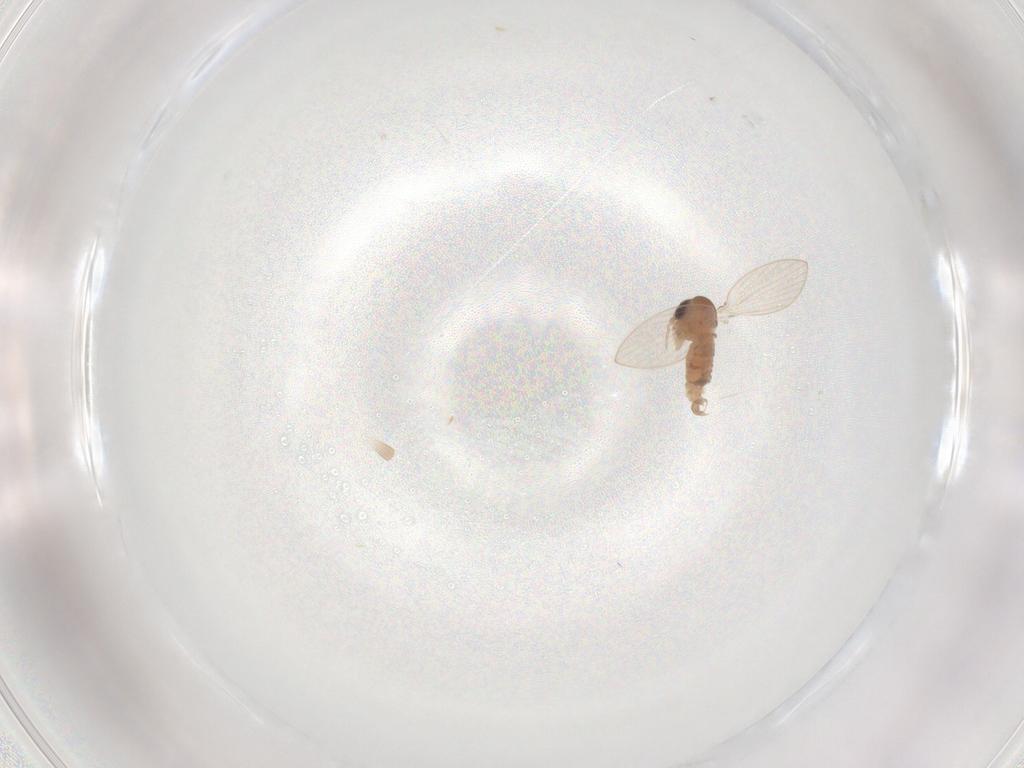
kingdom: Animalia
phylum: Arthropoda
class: Insecta
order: Diptera
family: Psychodidae
